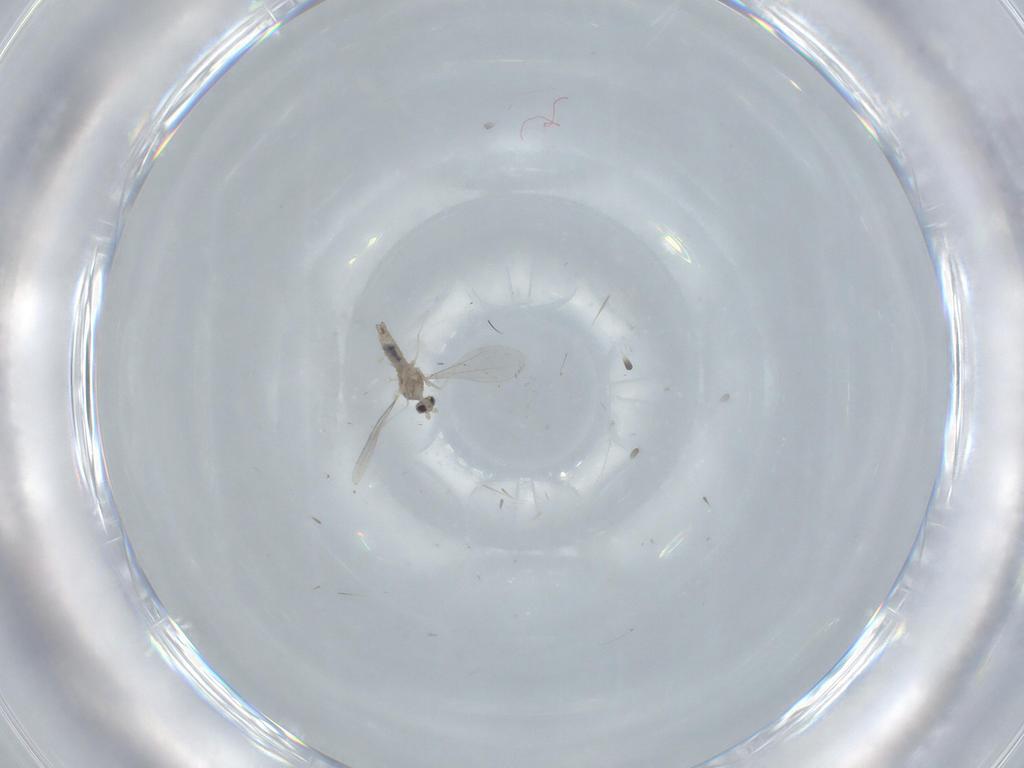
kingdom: Animalia
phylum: Arthropoda
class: Insecta
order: Diptera
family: Cecidomyiidae
